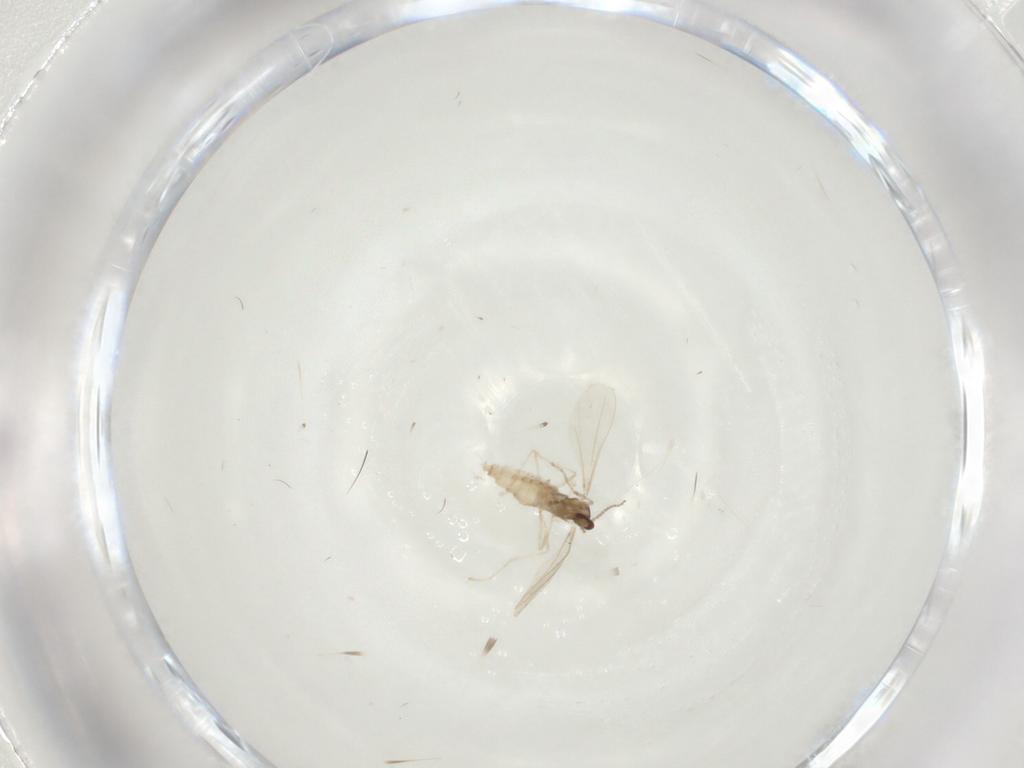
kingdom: Animalia
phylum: Arthropoda
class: Insecta
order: Diptera
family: Cecidomyiidae
